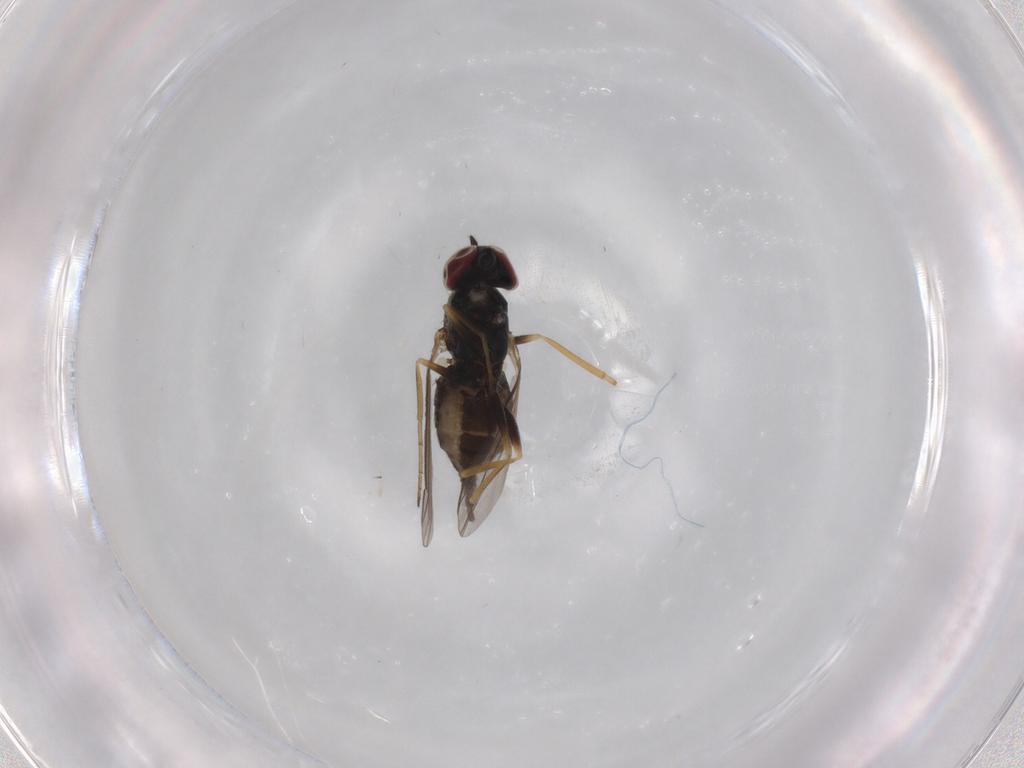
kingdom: Animalia
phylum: Arthropoda
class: Insecta
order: Diptera
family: Dolichopodidae
